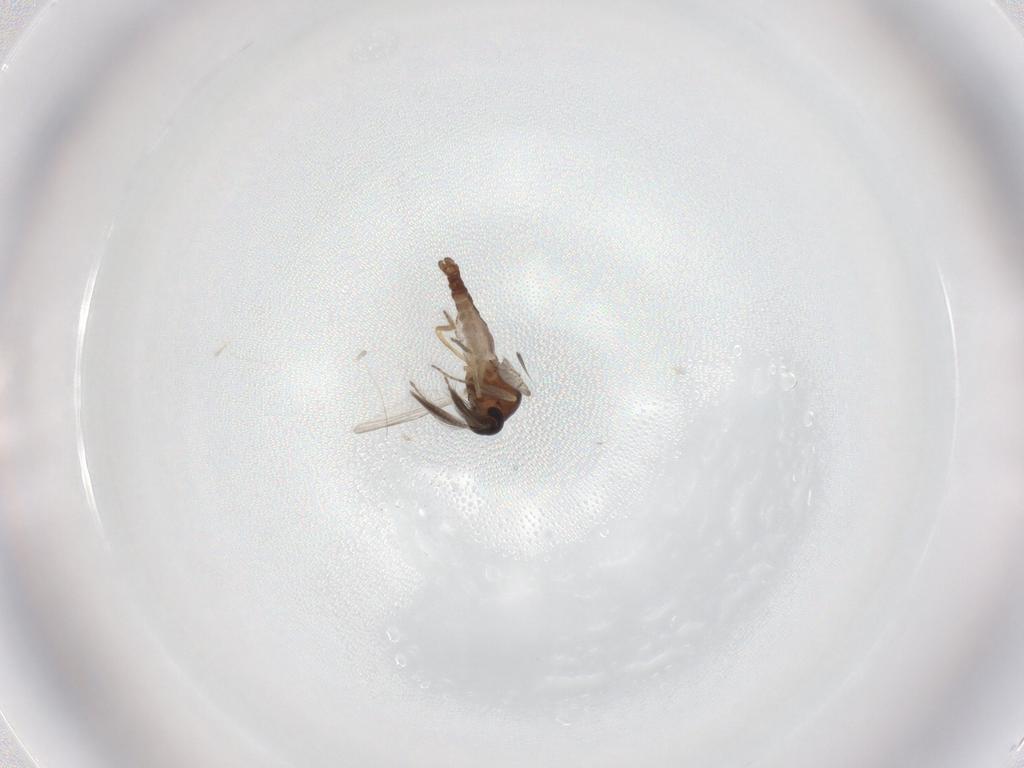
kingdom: Animalia
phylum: Arthropoda
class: Insecta
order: Diptera
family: Ceratopogonidae
